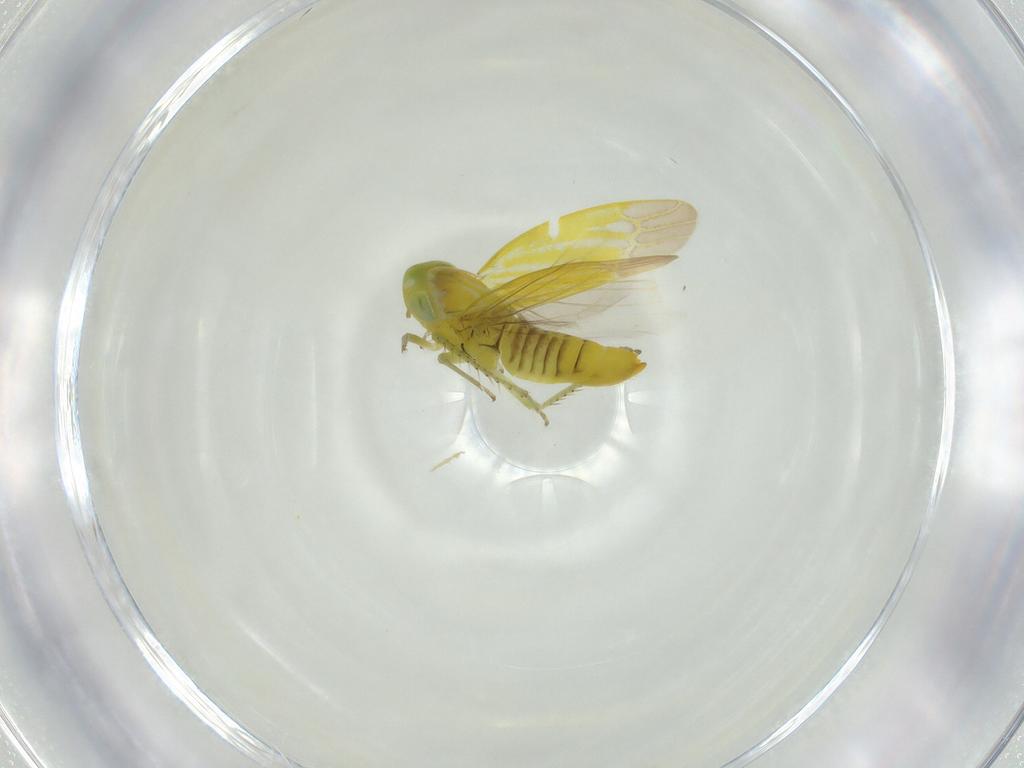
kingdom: Animalia
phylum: Arthropoda
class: Insecta
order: Hemiptera
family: Cicadellidae
